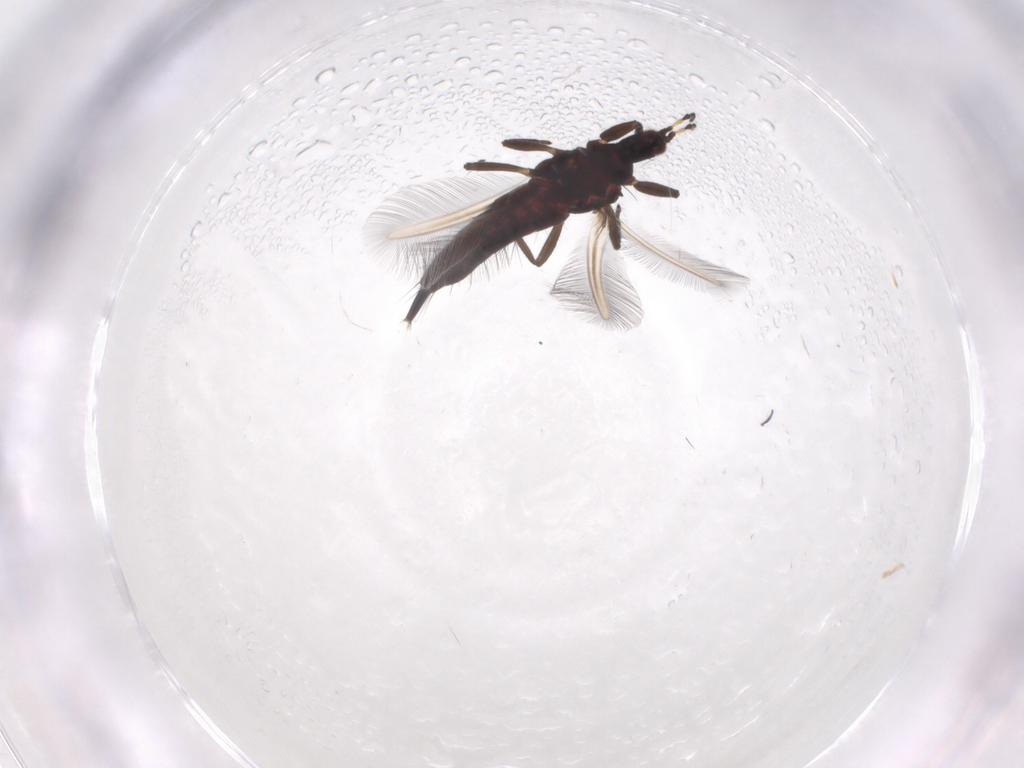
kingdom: Animalia
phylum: Arthropoda
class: Insecta
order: Thysanoptera
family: Phlaeothripidae
